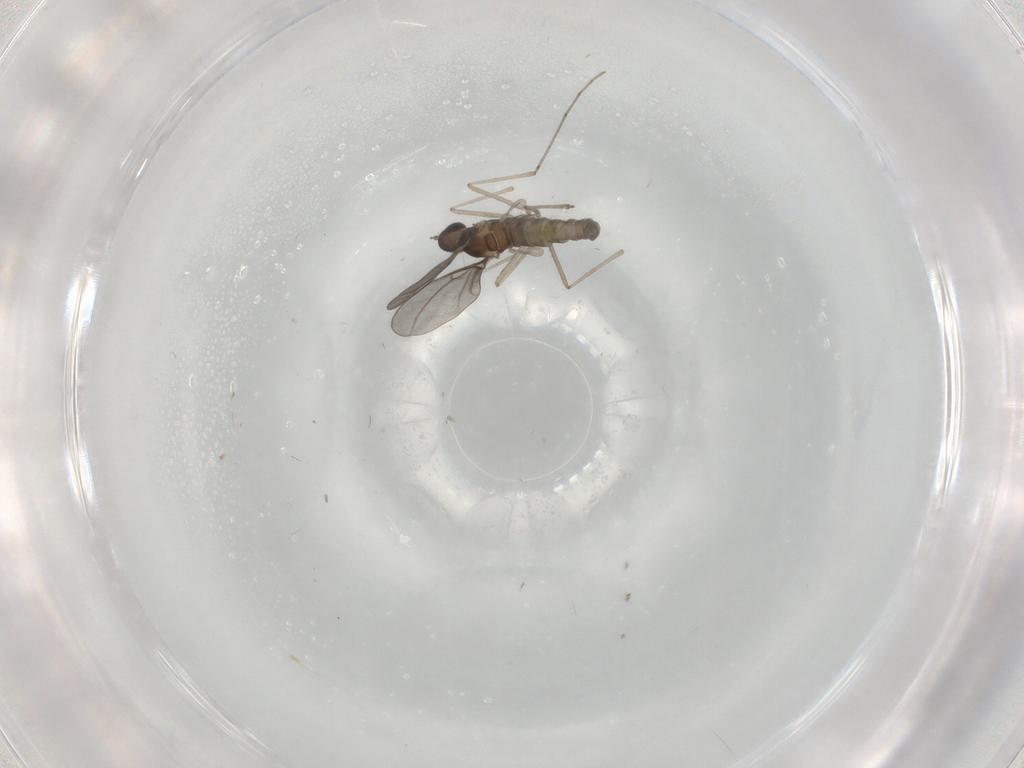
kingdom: Animalia
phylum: Arthropoda
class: Insecta
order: Diptera
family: Cecidomyiidae
